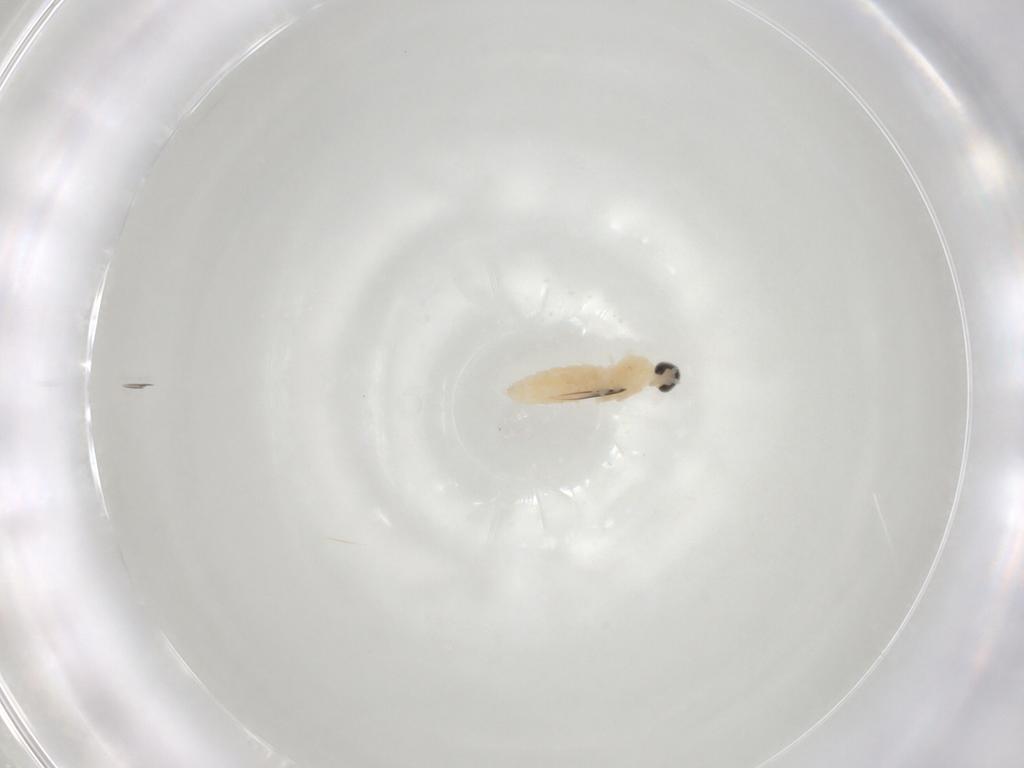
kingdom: Animalia
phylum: Arthropoda
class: Insecta
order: Diptera
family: Cecidomyiidae
